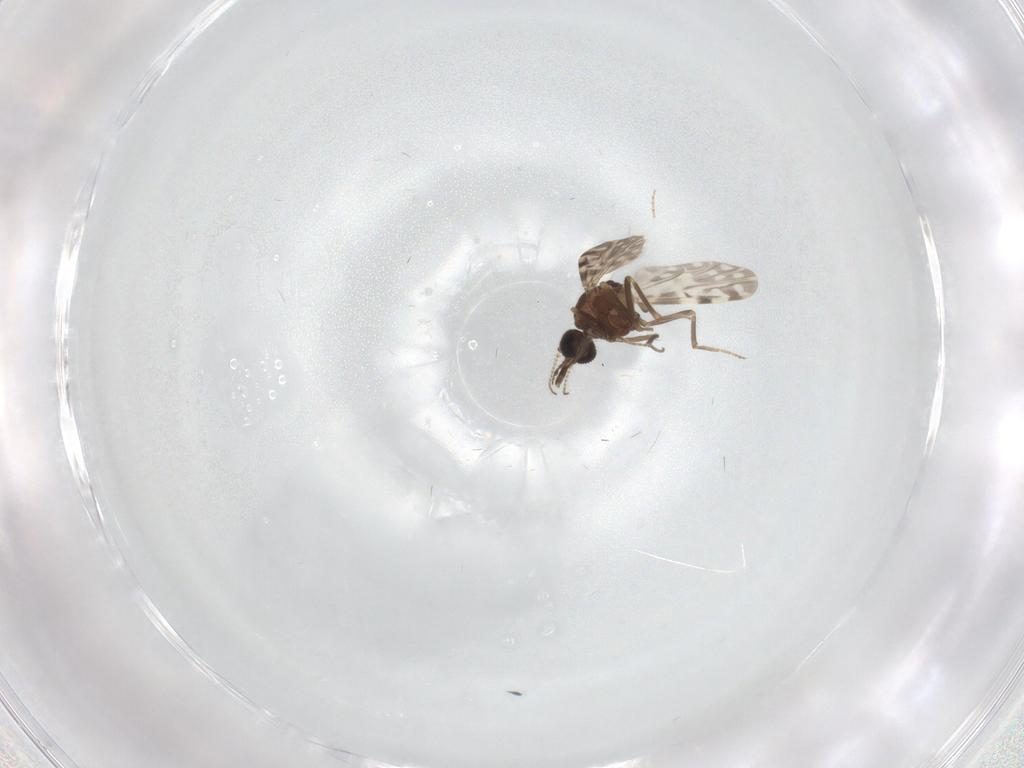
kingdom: Animalia
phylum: Arthropoda
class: Insecta
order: Diptera
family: Ceratopogonidae
